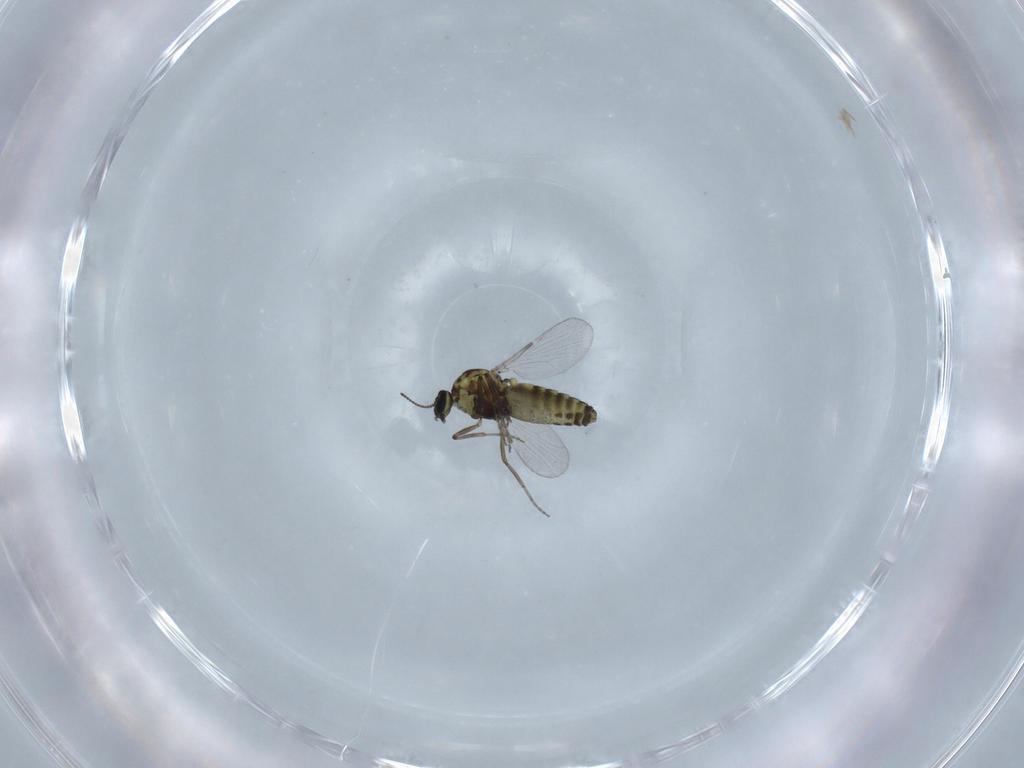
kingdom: Animalia
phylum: Arthropoda
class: Insecta
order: Diptera
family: Ceratopogonidae
